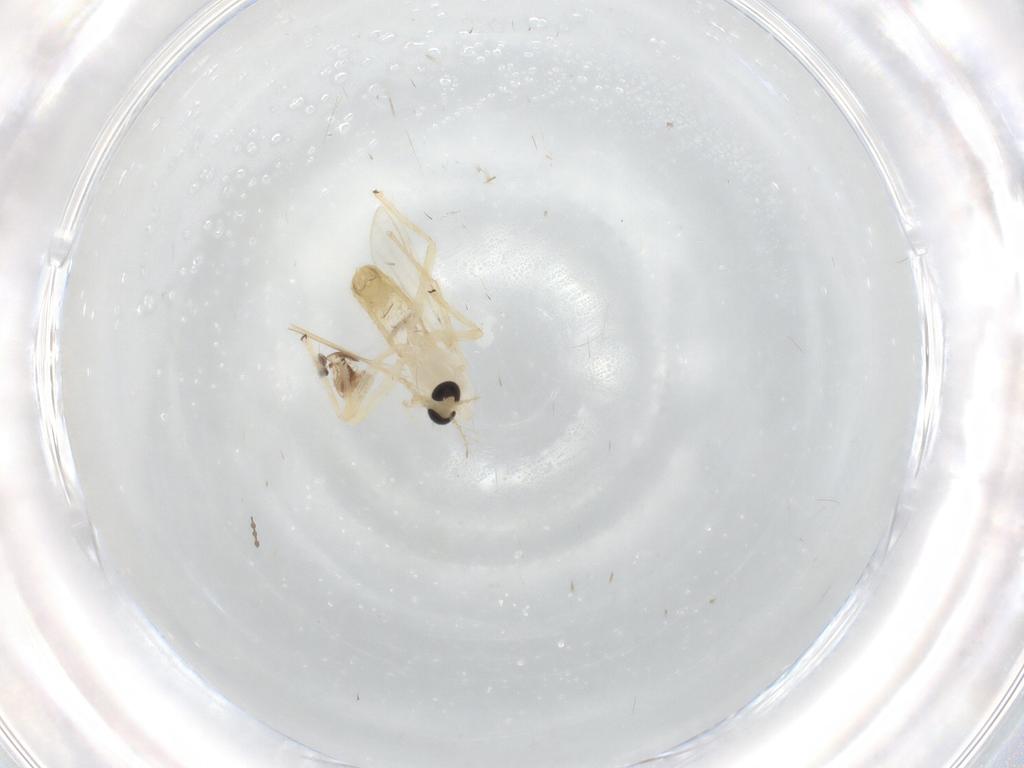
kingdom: Animalia
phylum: Arthropoda
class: Insecta
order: Diptera
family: Chironomidae
